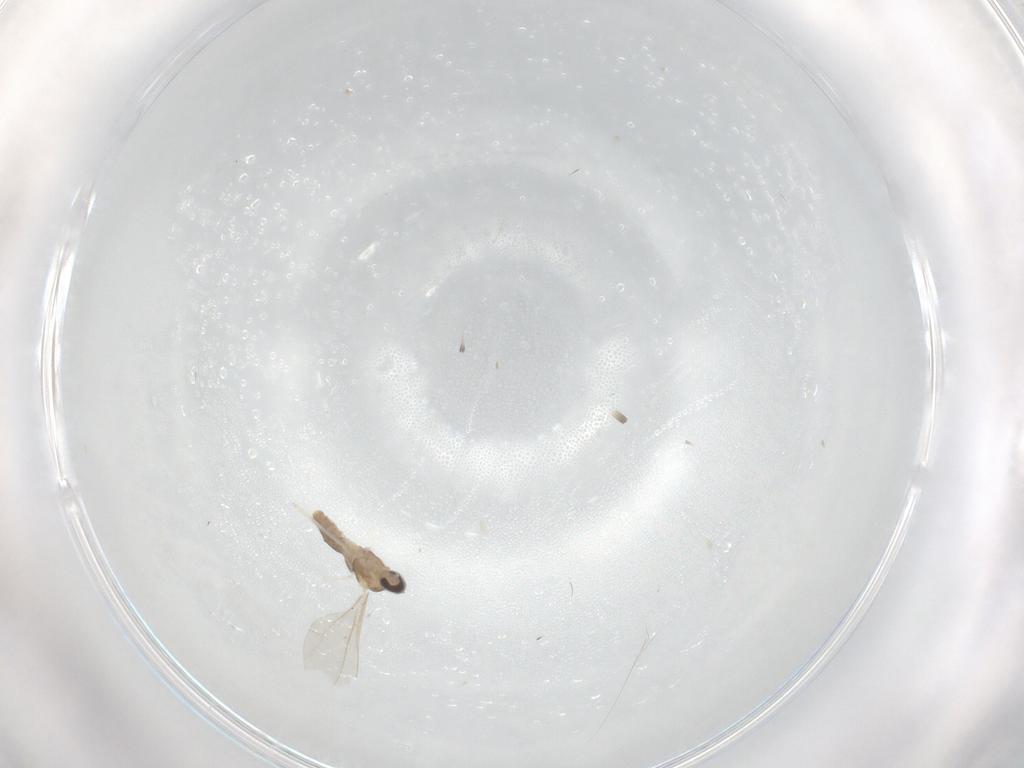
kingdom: Animalia
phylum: Arthropoda
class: Insecta
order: Diptera
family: Cecidomyiidae
